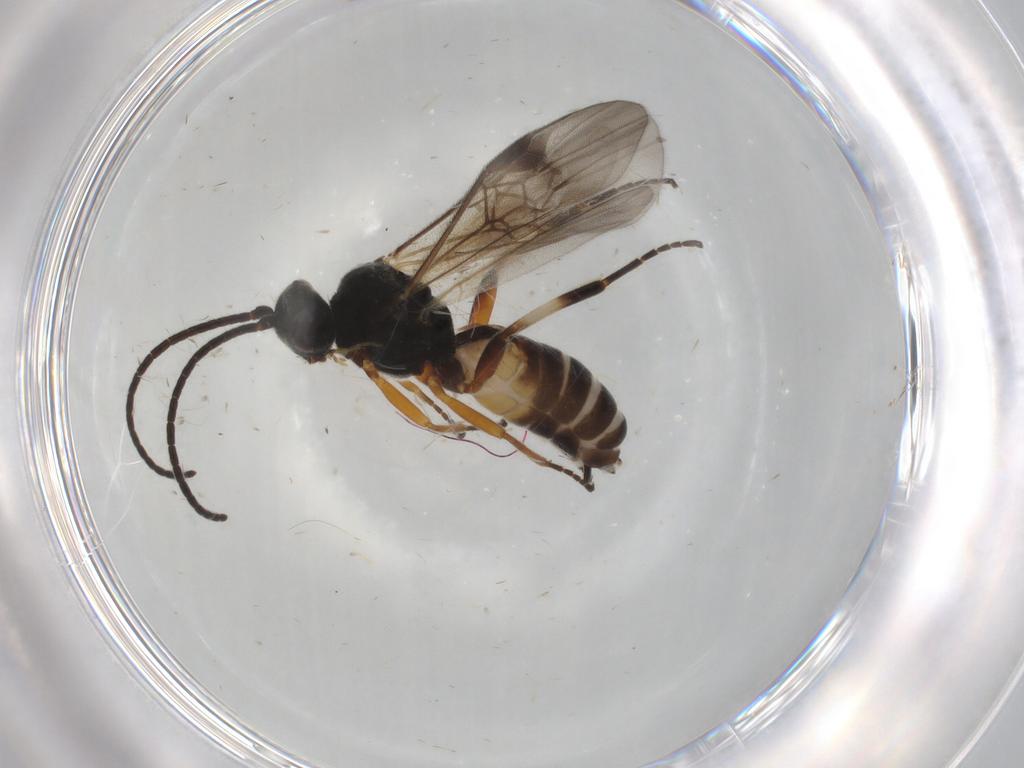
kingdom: Animalia
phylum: Arthropoda
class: Insecta
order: Hymenoptera
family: Braconidae
